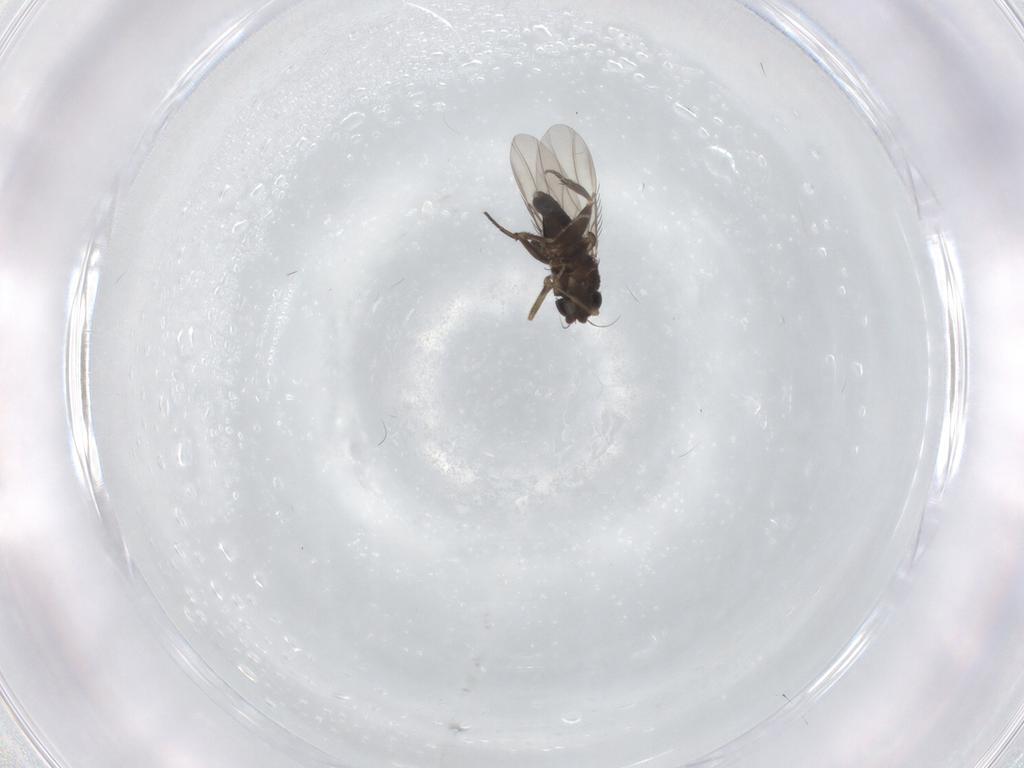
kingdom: Animalia
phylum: Arthropoda
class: Insecta
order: Diptera
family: Phoridae
